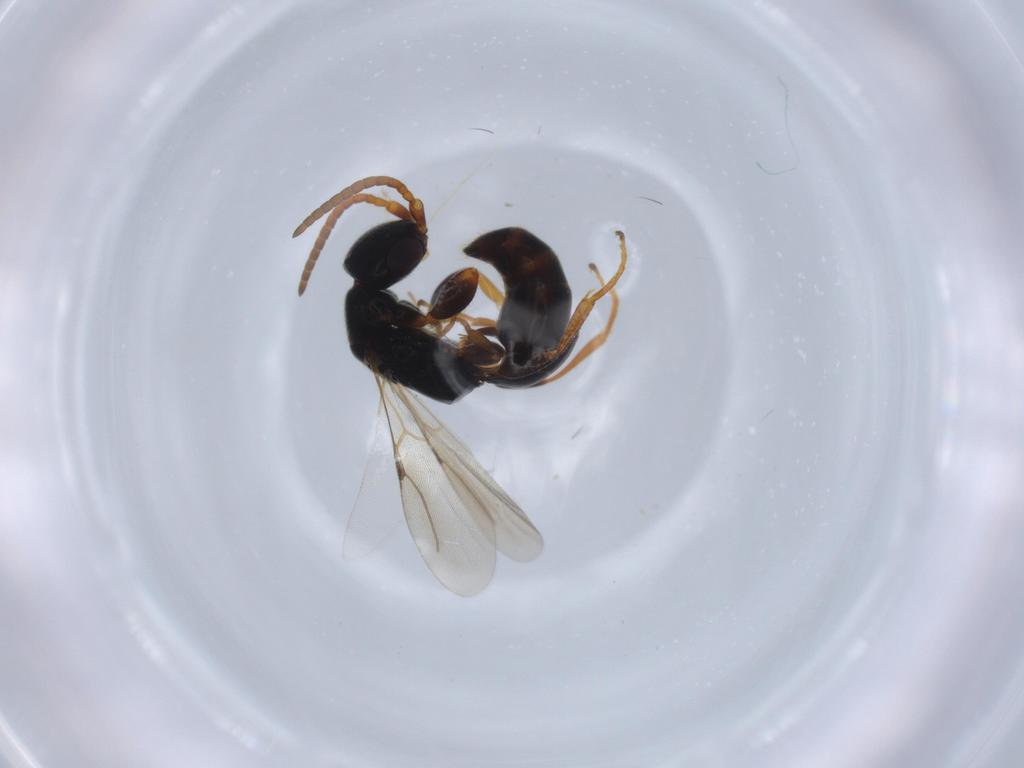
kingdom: Animalia
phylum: Arthropoda
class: Insecta
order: Hymenoptera
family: Bethylidae
